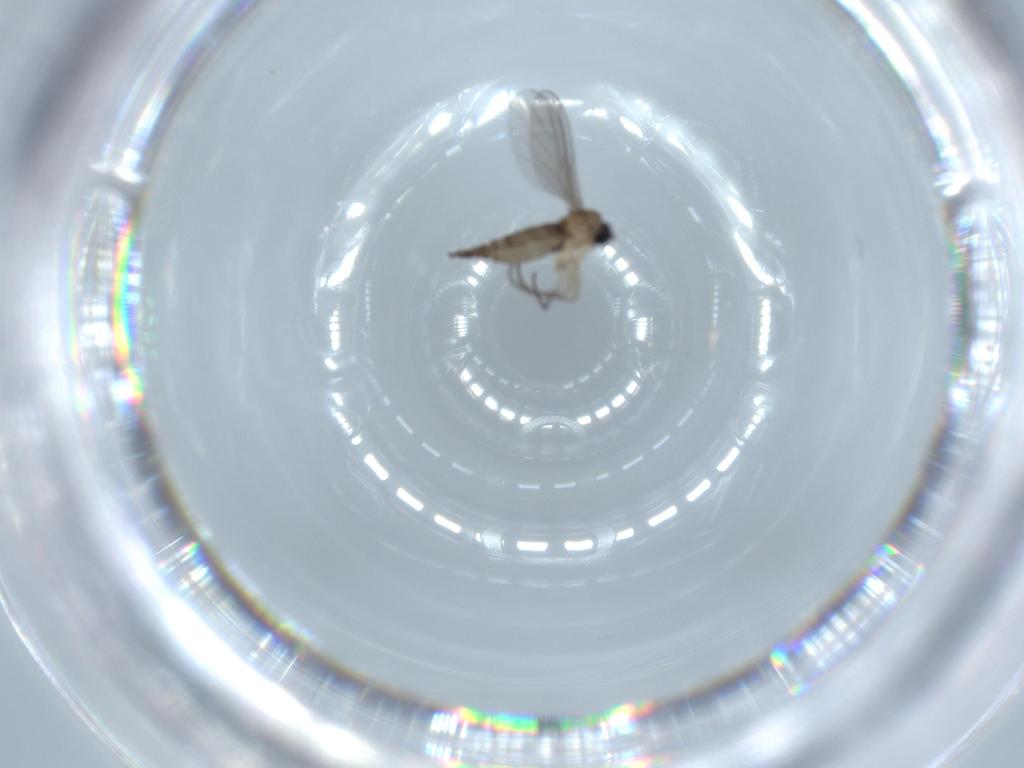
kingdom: Animalia
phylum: Arthropoda
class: Insecta
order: Diptera
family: Sciaridae
